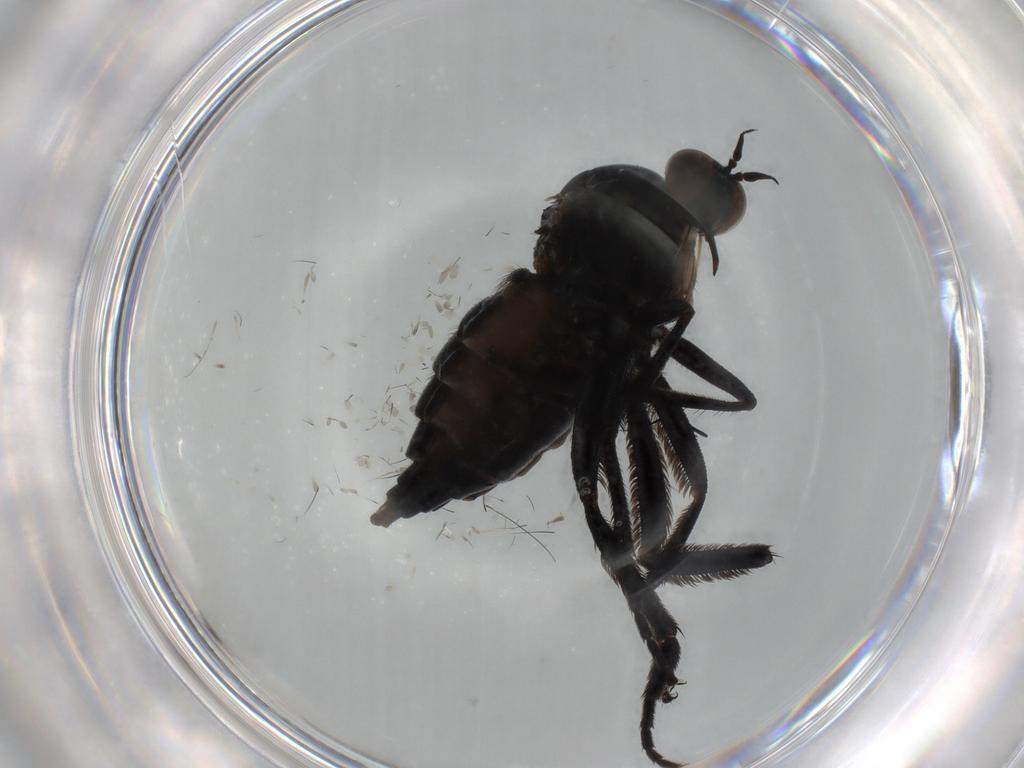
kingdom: Animalia
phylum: Arthropoda
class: Insecta
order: Diptera
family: Empididae
